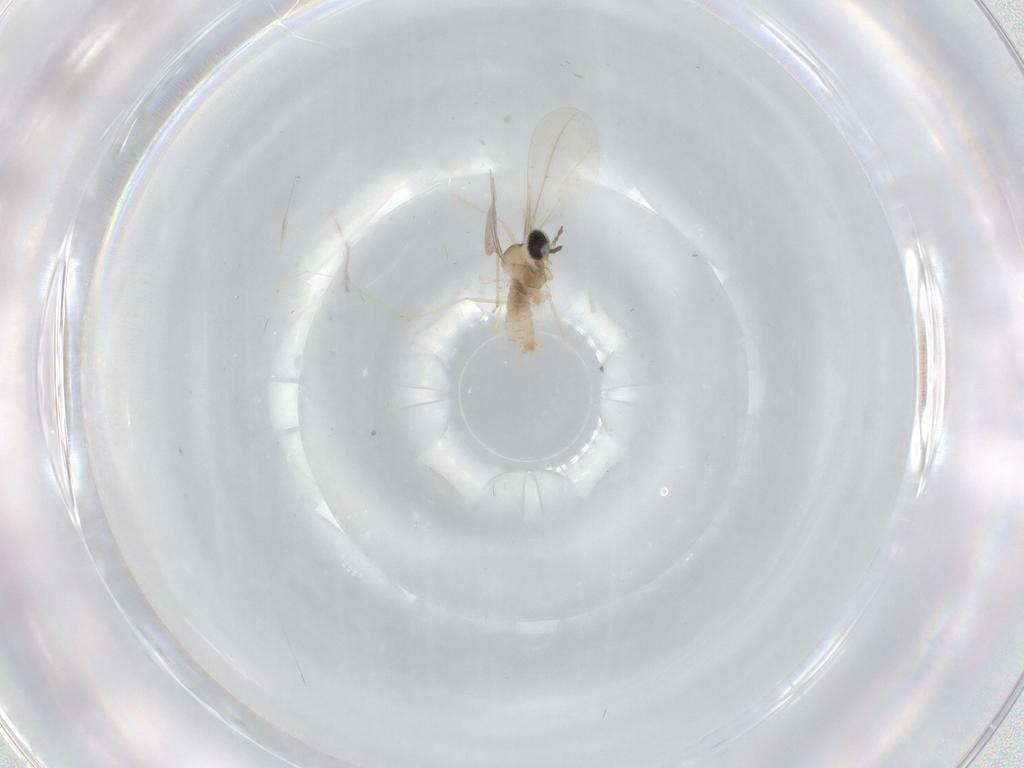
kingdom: Animalia
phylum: Arthropoda
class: Insecta
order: Diptera
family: Cecidomyiidae
